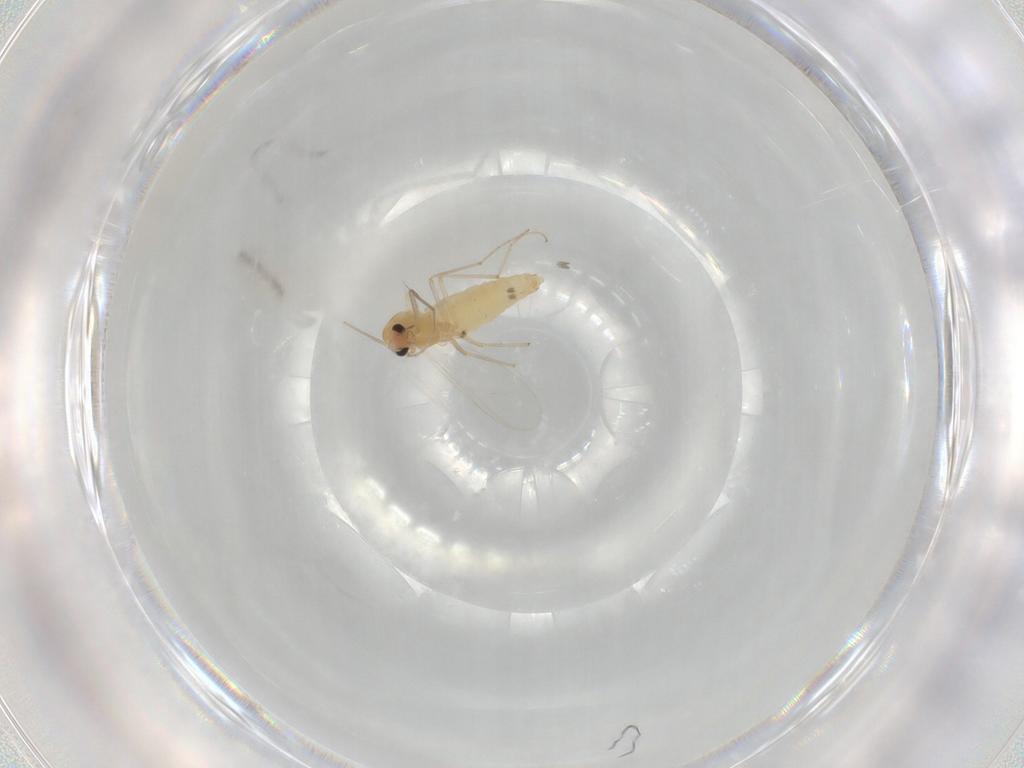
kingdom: Animalia
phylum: Arthropoda
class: Insecta
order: Diptera
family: Chironomidae
